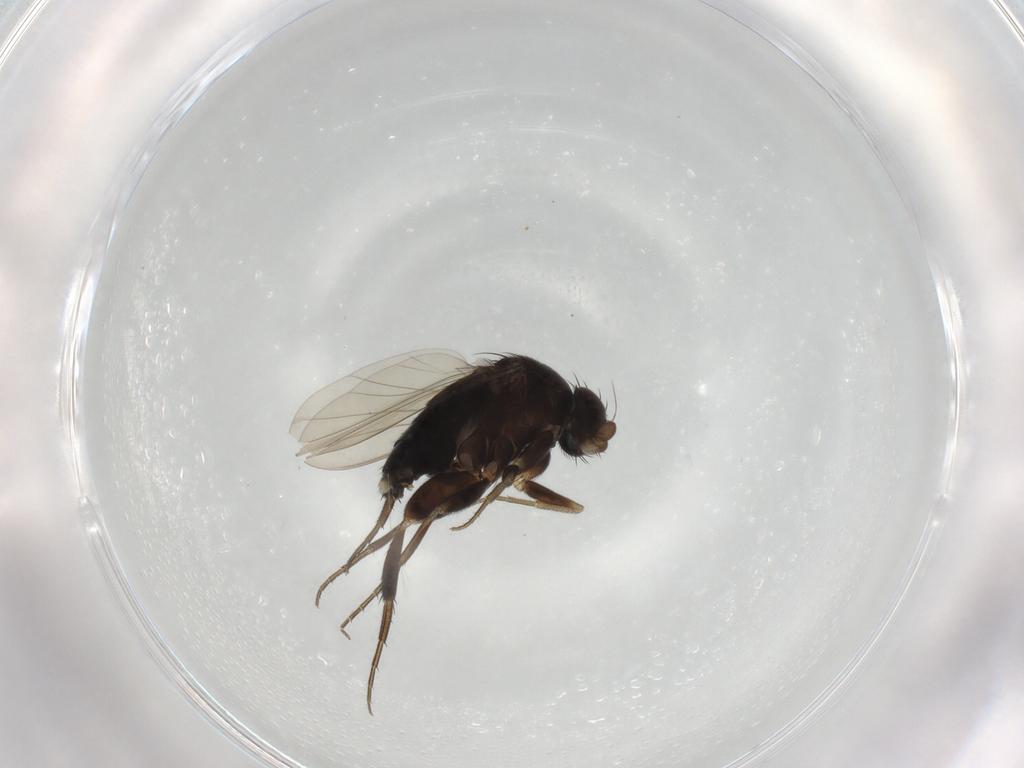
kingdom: Animalia
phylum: Arthropoda
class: Insecta
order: Diptera
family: Phoridae
